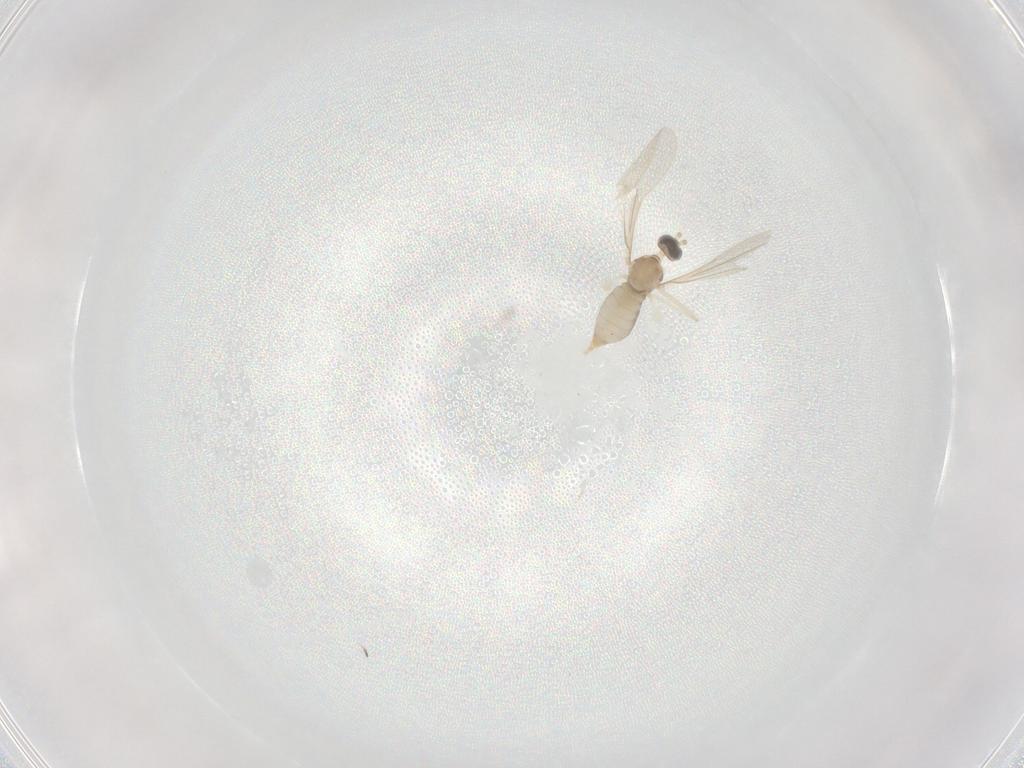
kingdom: Animalia
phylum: Arthropoda
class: Insecta
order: Diptera
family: Cecidomyiidae
